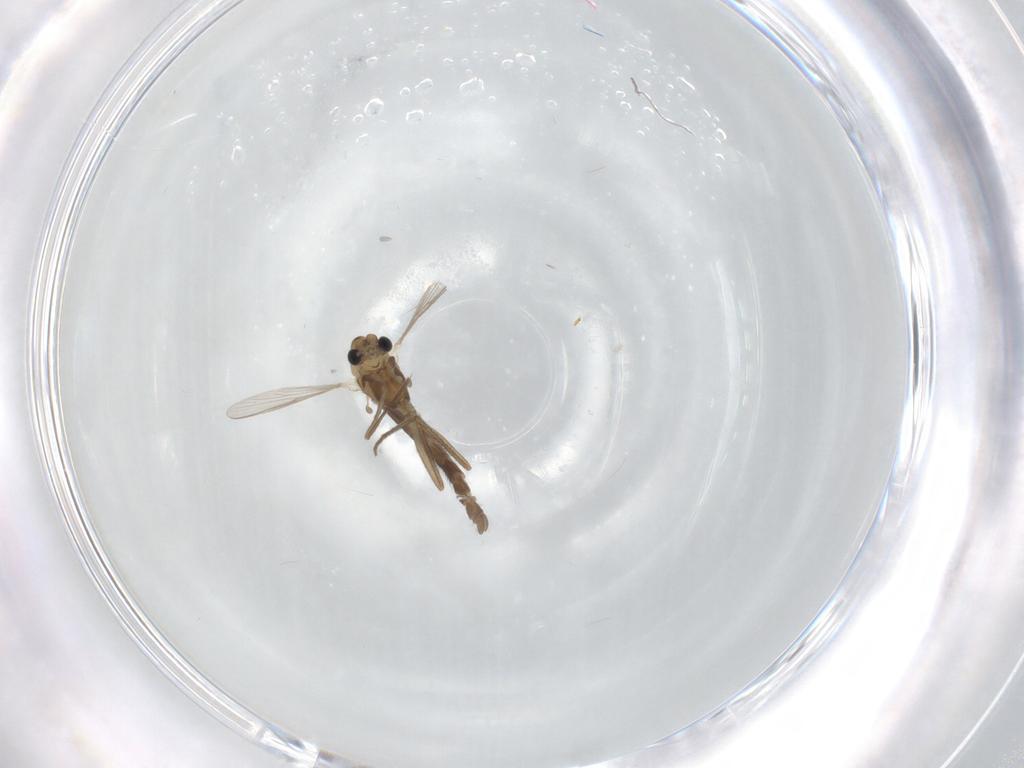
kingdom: Animalia
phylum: Arthropoda
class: Insecta
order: Diptera
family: Chironomidae
